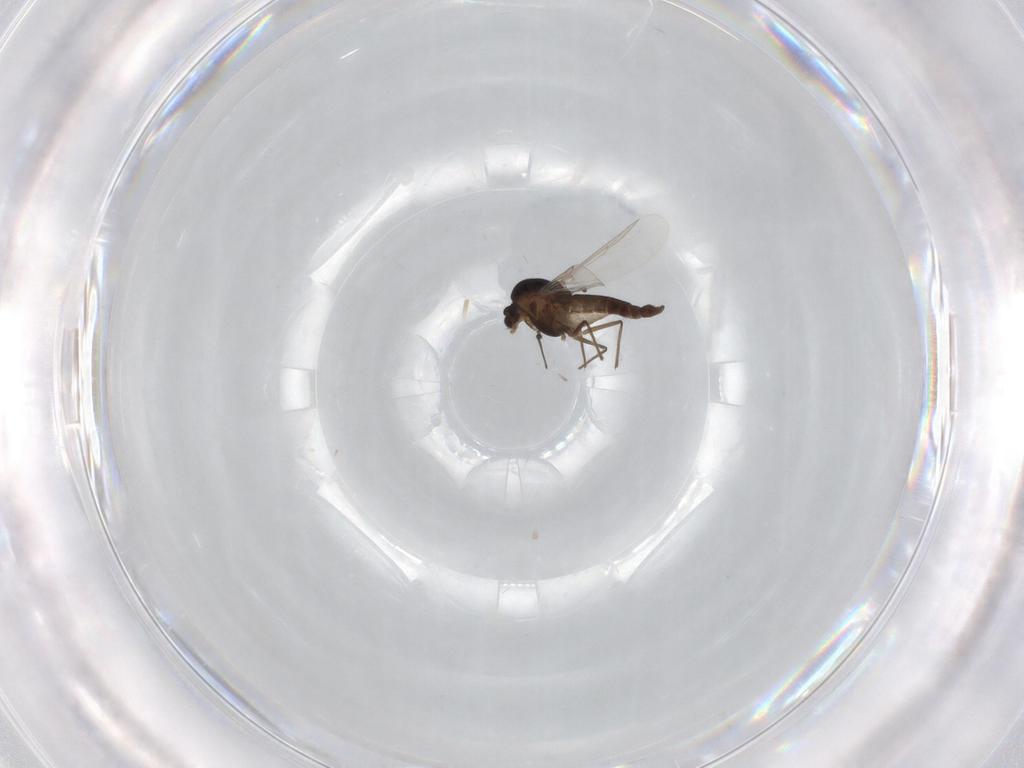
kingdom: Animalia
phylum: Arthropoda
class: Insecta
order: Diptera
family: Chironomidae
